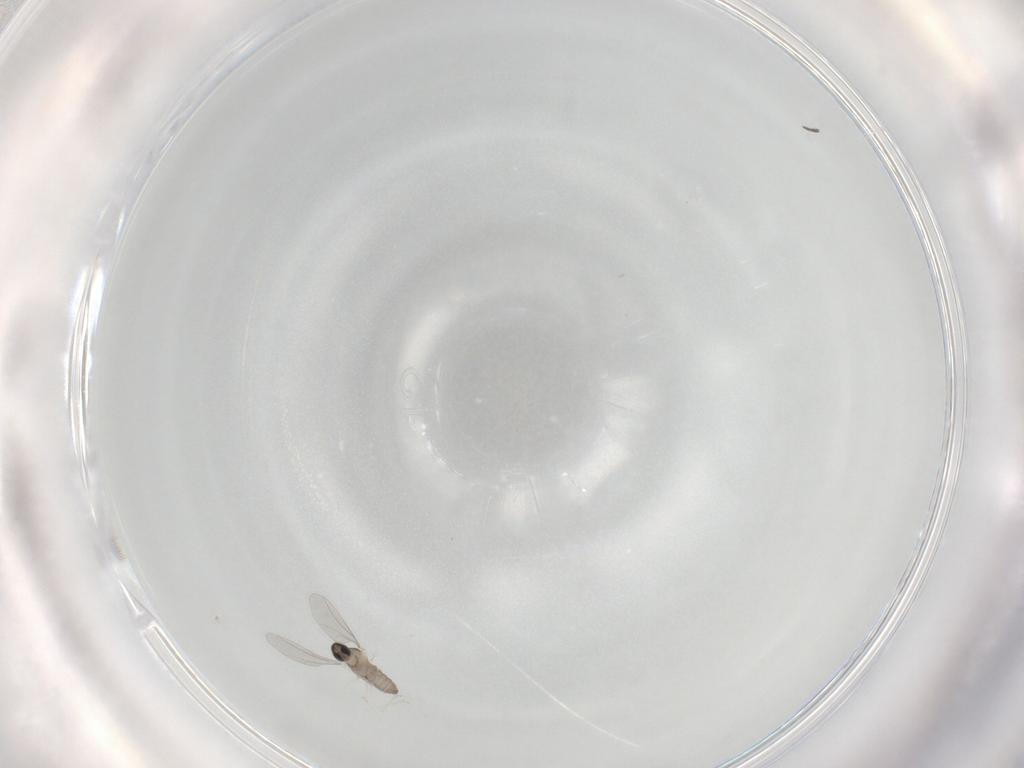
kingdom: Animalia
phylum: Arthropoda
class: Insecta
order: Diptera
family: Cecidomyiidae
